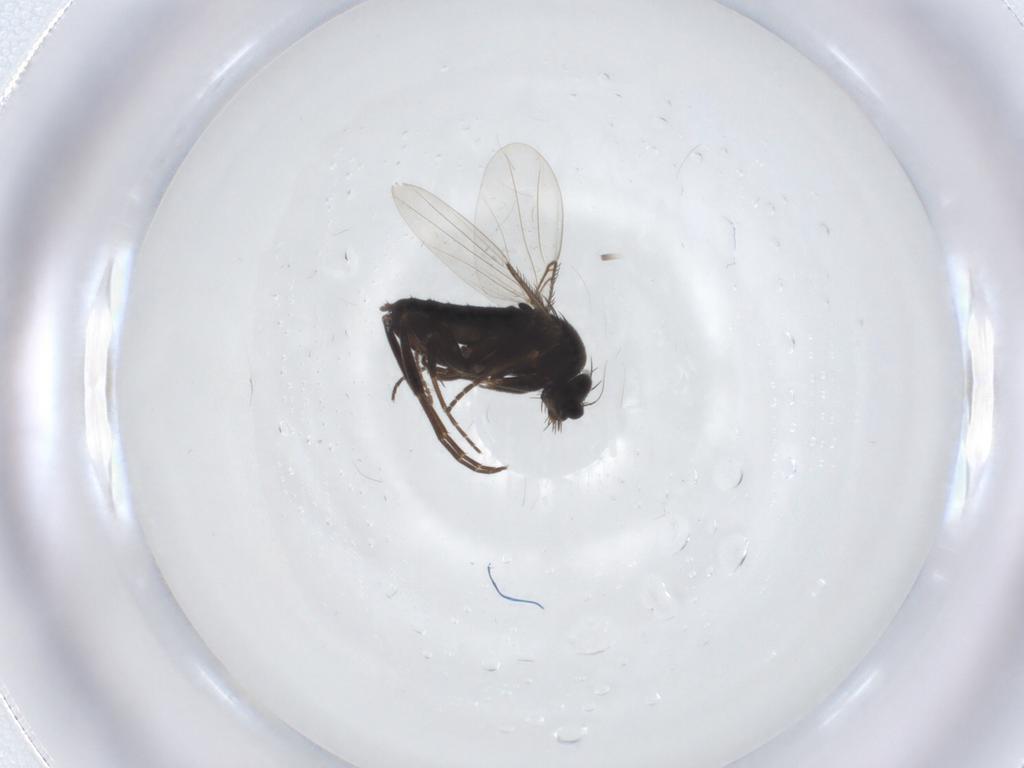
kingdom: Animalia
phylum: Arthropoda
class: Insecta
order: Diptera
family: Phoridae
